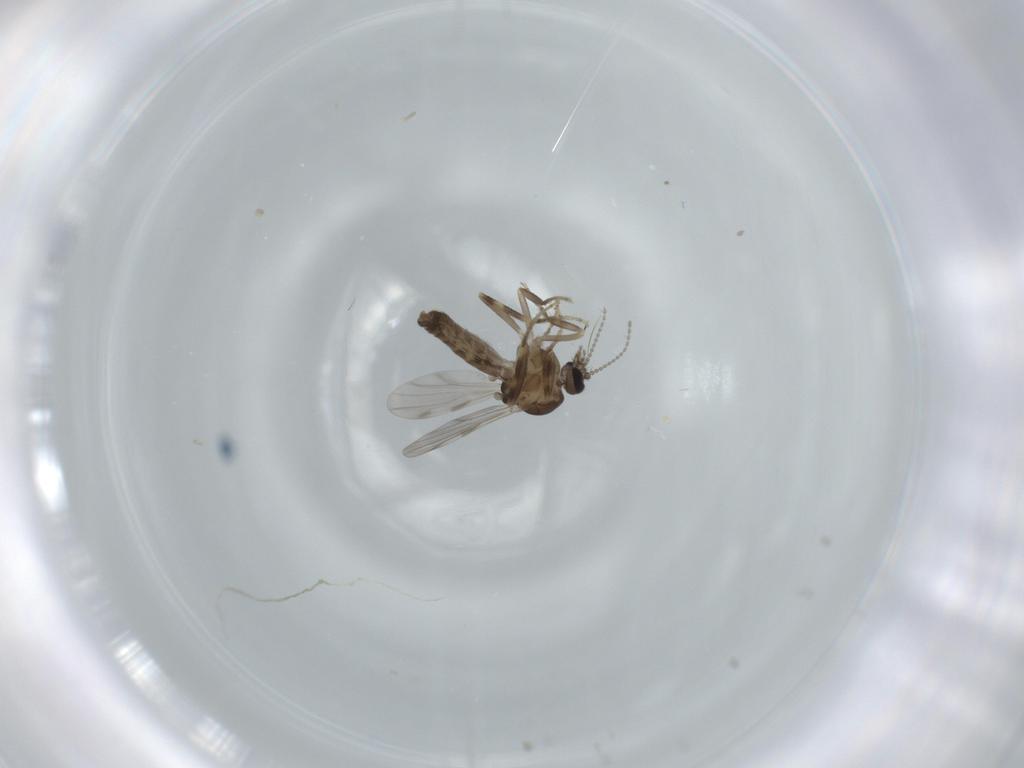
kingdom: Animalia
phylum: Arthropoda
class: Insecta
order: Diptera
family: Ceratopogonidae
